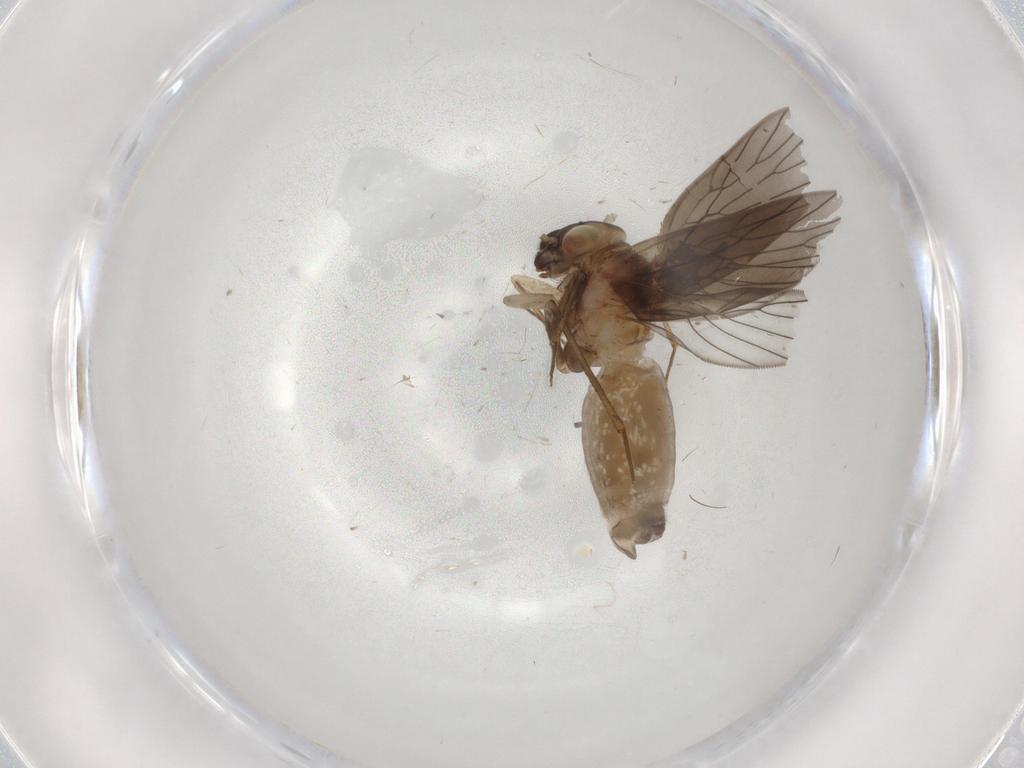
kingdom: Animalia
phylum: Arthropoda
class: Insecta
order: Psocodea
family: Lepidopsocidae
